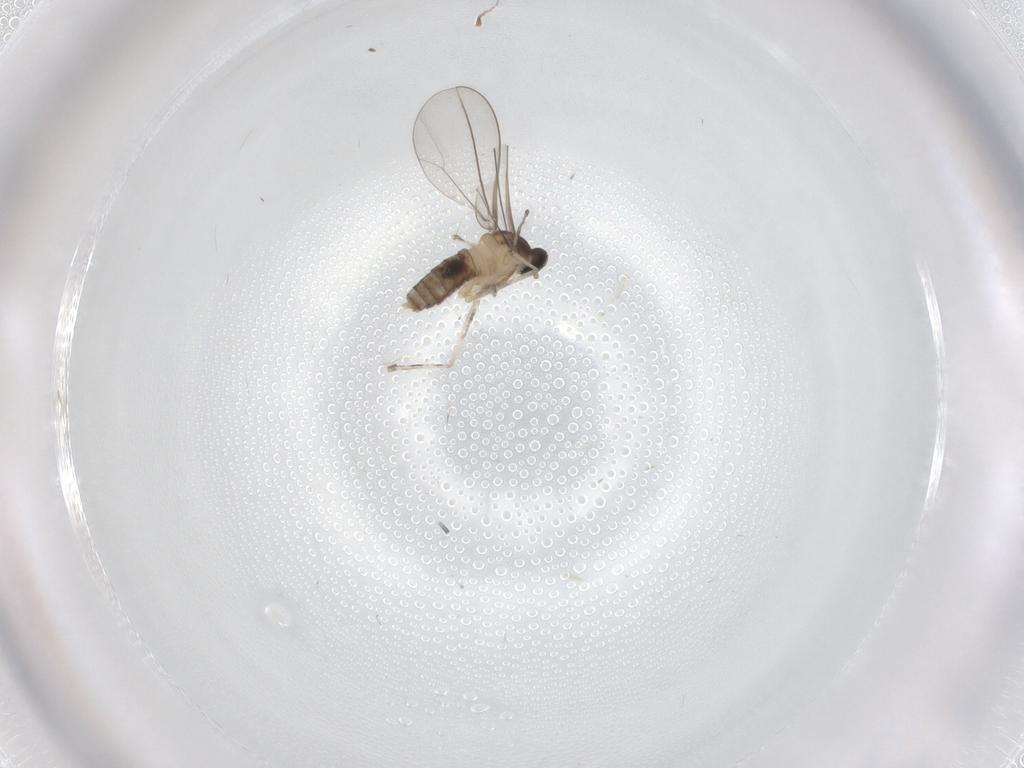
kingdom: Animalia
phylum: Arthropoda
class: Insecta
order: Diptera
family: Cecidomyiidae
